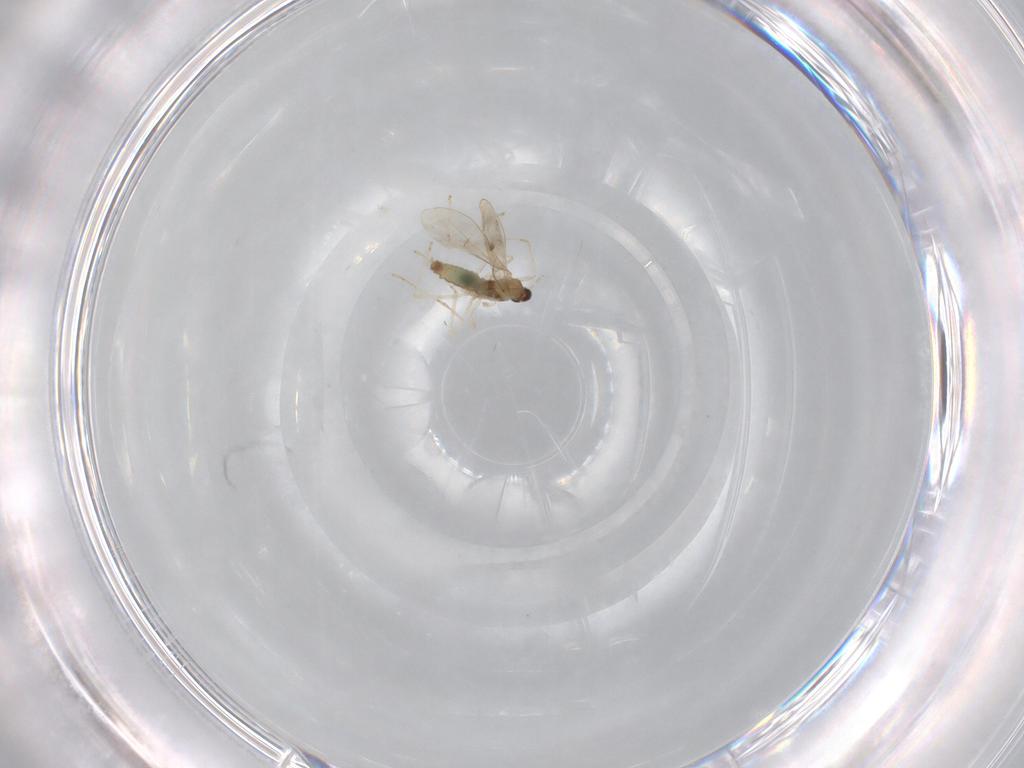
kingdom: Animalia
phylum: Arthropoda
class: Insecta
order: Diptera
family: Cecidomyiidae
